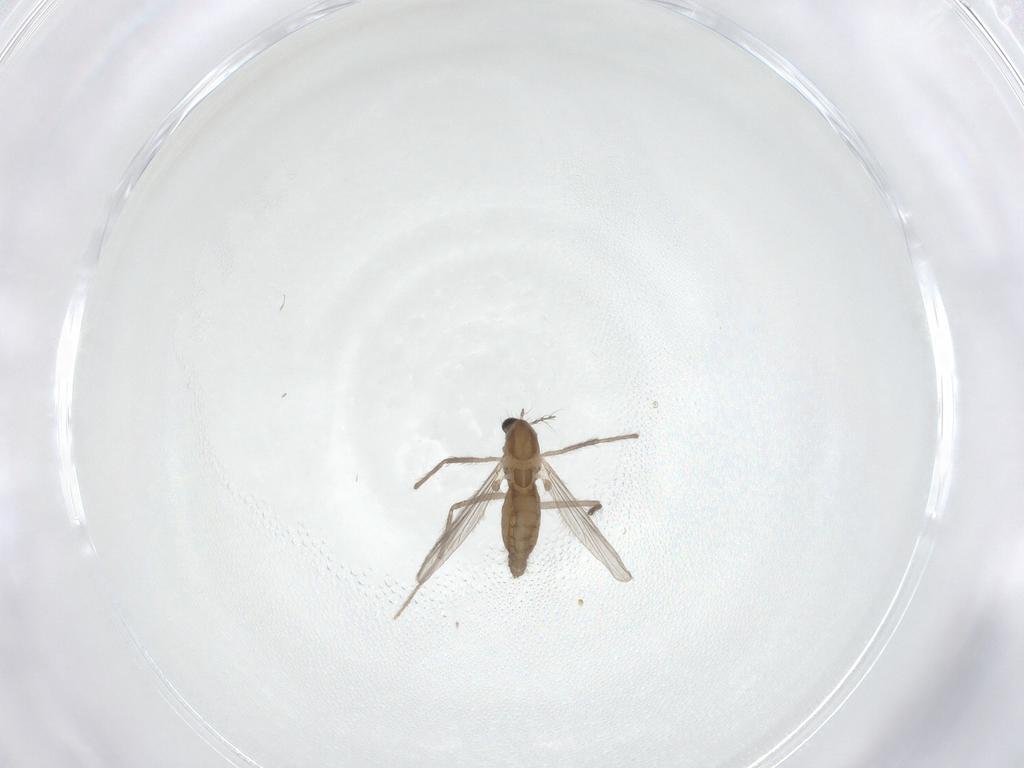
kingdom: Animalia
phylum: Arthropoda
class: Insecta
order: Diptera
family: Chironomidae
